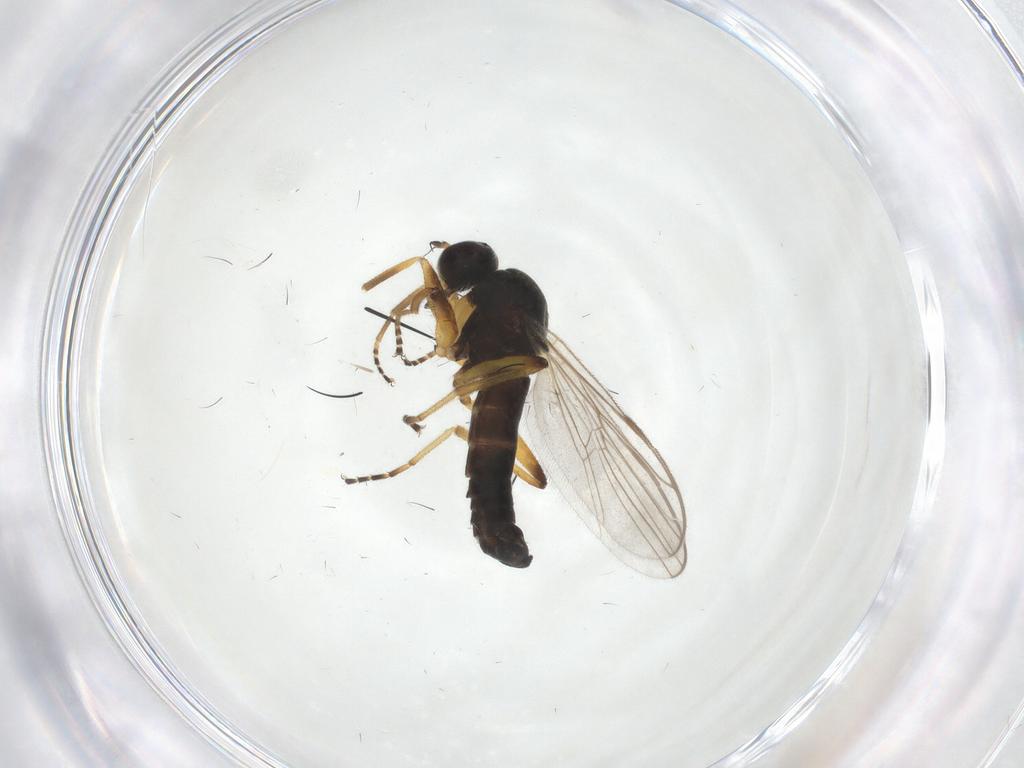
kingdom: Animalia
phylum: Arthropoda
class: Insecta
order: Diptera
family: Hybotidae
